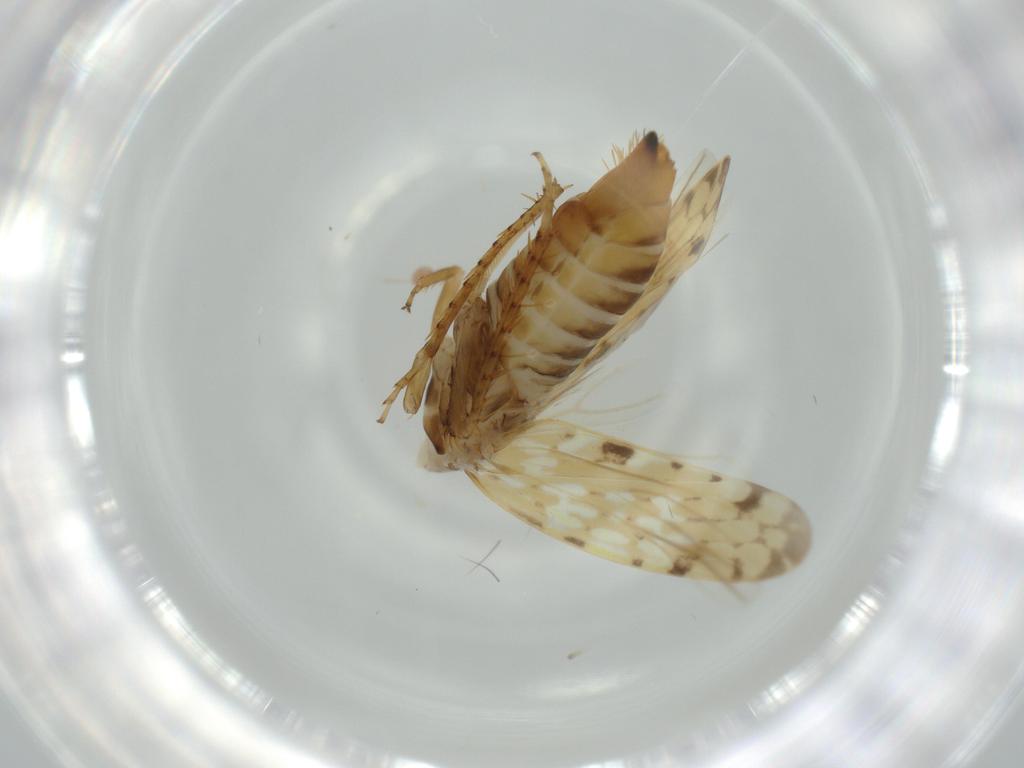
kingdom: Animalia
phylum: Arthropoda
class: Insecta
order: Hemiptera
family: Cicadellidae
